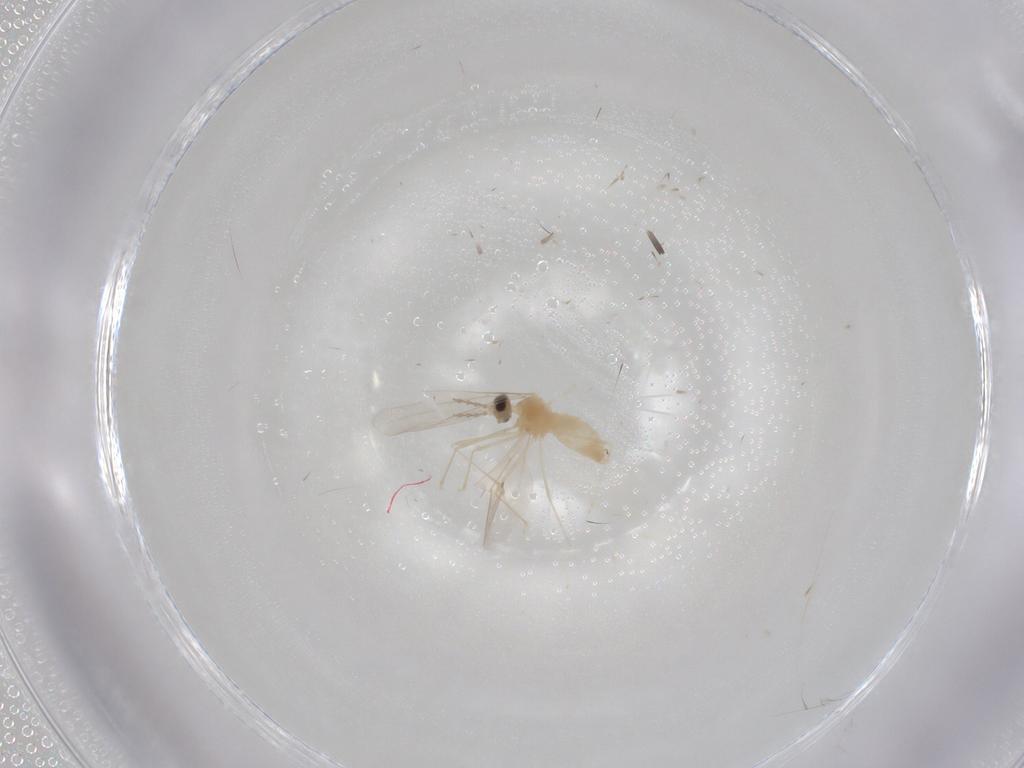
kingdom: Animalia
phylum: Arthropoda
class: Insecta
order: Diptera
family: Cecidomyiidae
